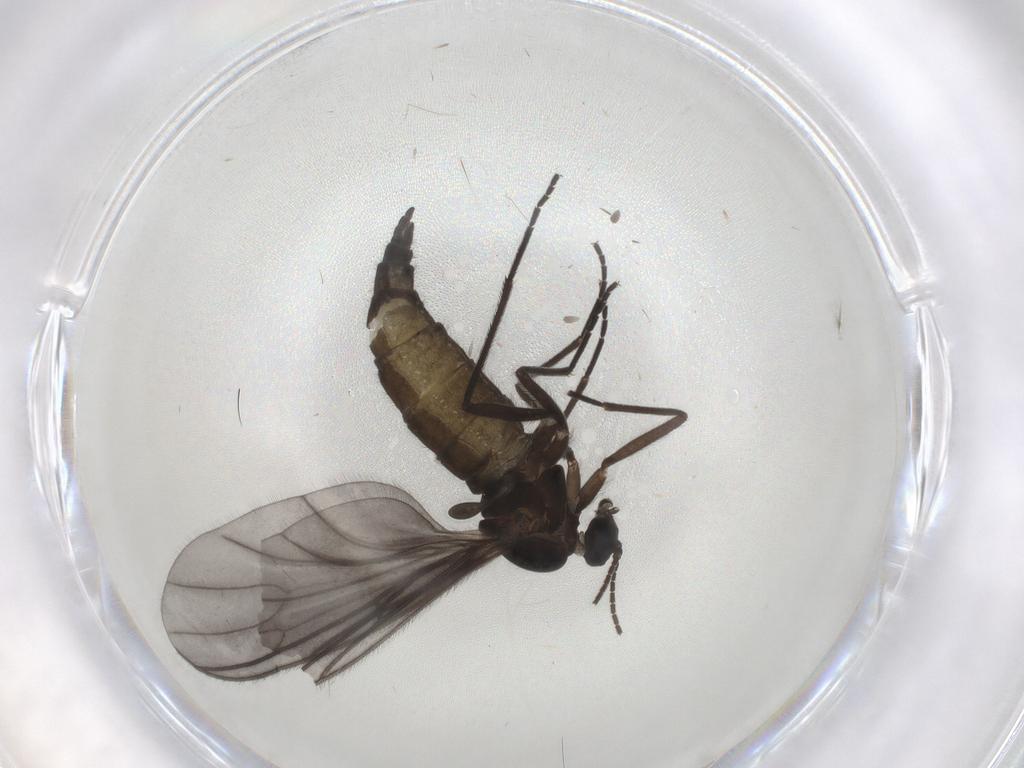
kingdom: Animalia
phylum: Arthropoda
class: Insecta
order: Diptera
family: Sciaridae
